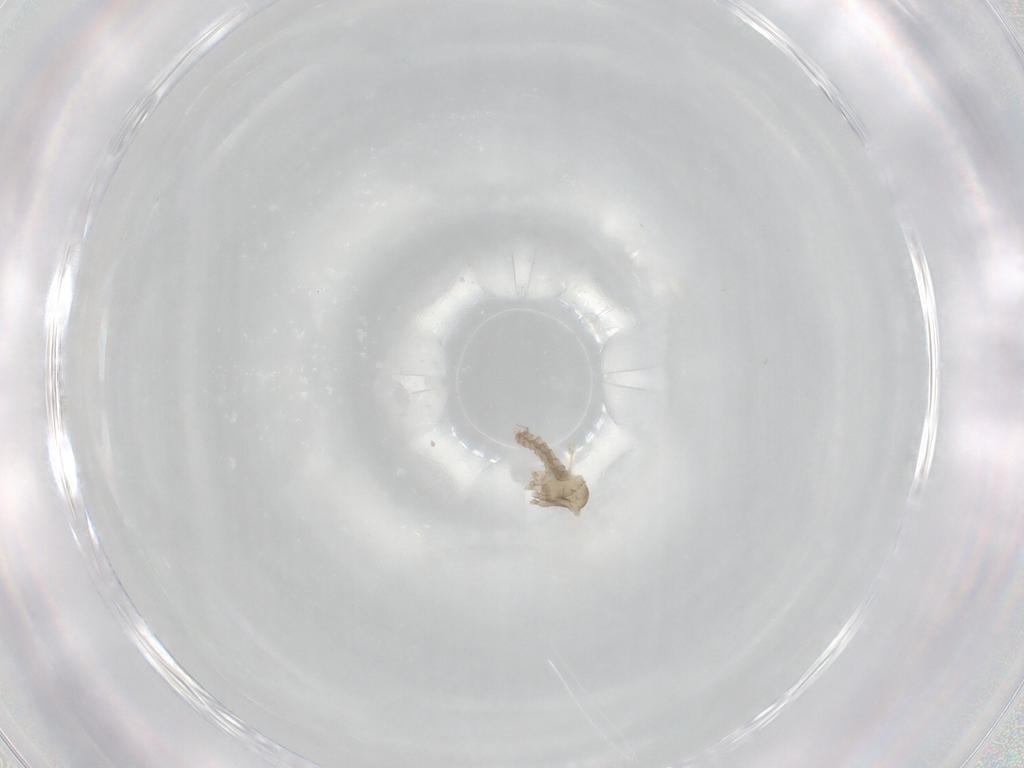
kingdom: Animalia
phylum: Arthropoda
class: Insecta
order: Diptera
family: Cecidomyiidae
